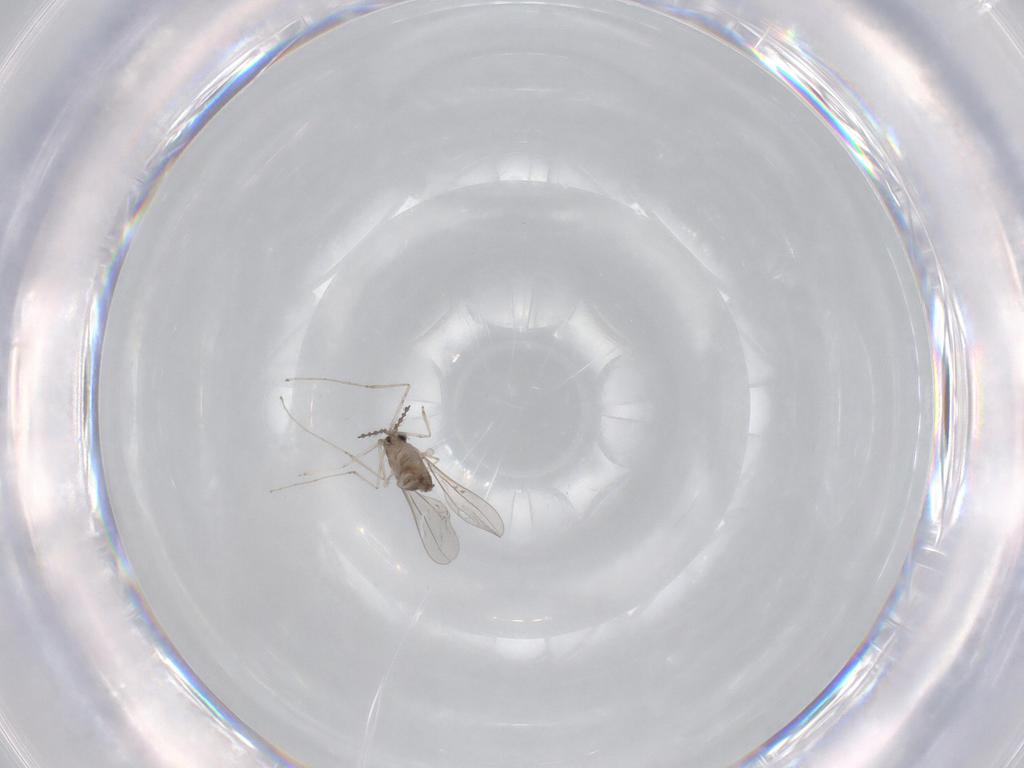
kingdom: Animalia
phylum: Arthropoda
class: Insecta
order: Diptera
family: Cecidomyiidae
